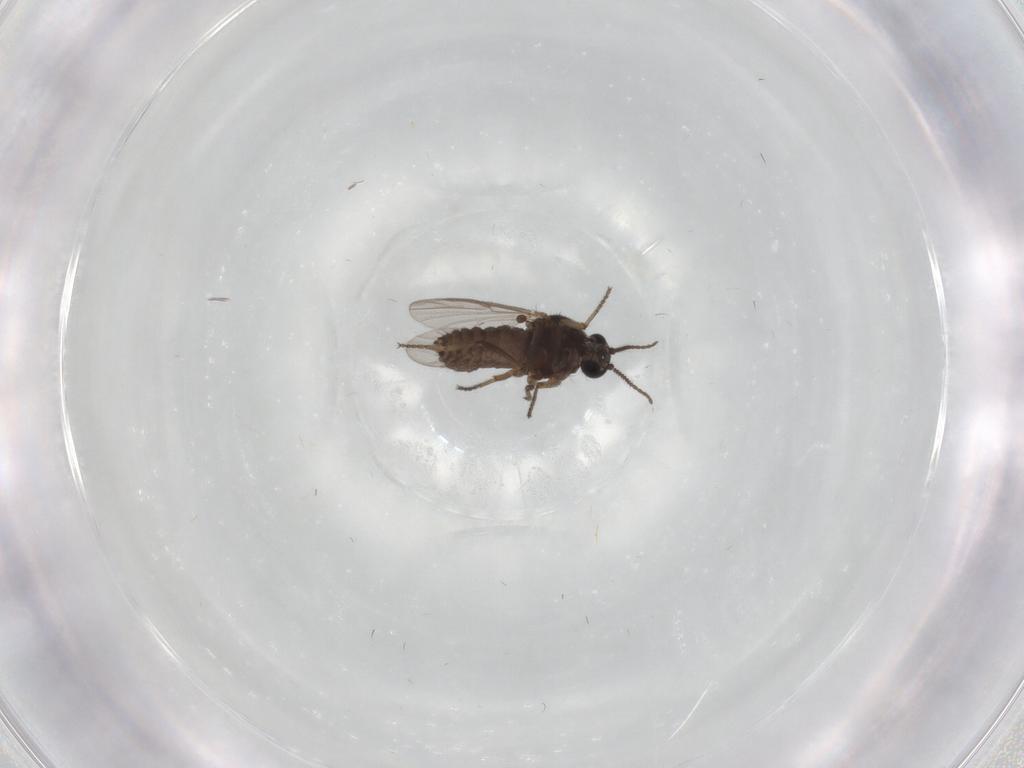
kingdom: Animalia
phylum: Arthropoda
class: Insecta
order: Diptera
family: Ceratopogonidae
